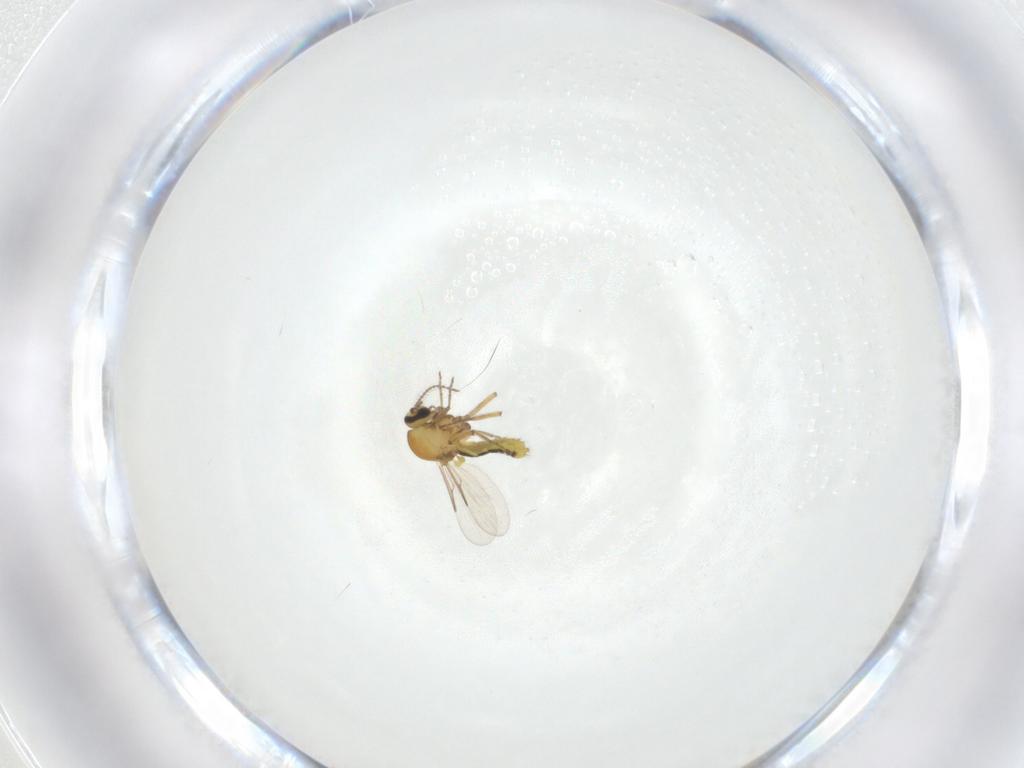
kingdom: Animalia
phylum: Arthropoda
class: Insecta
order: Diptera
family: Ceratopogonidae
